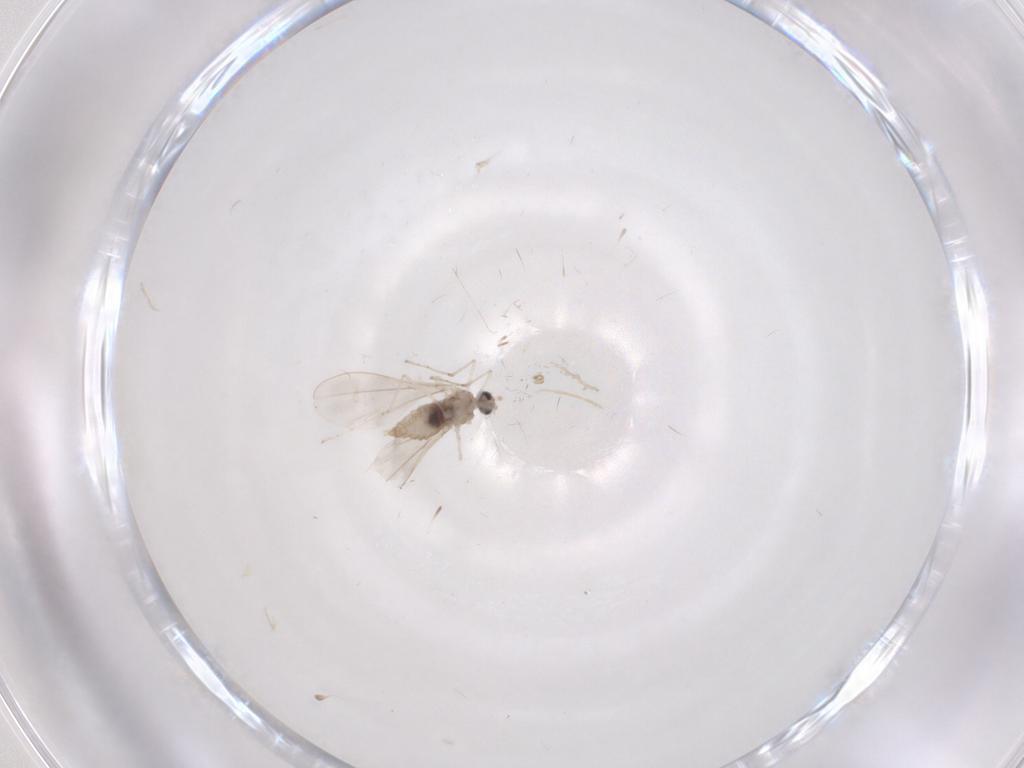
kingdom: Animalia
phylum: Arthropoda
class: Insecta
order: Diptera
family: Cecidomyiidae
